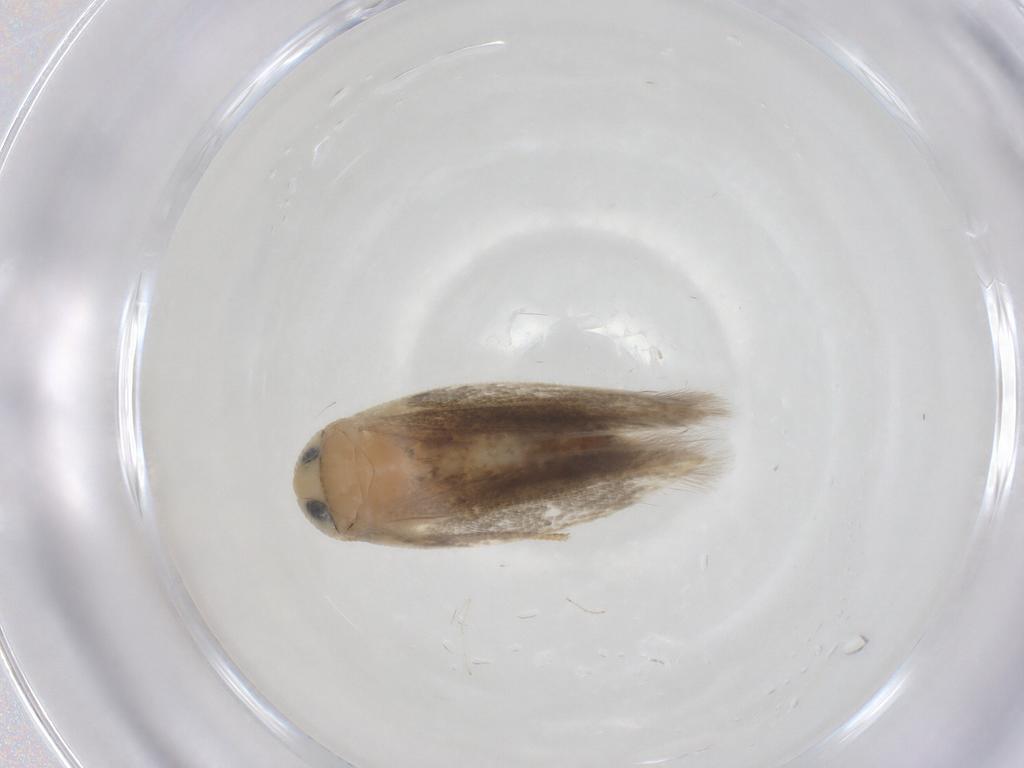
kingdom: Animalia
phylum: Arthropoda
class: Insecta
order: Lepidoptera
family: Opostegidae
